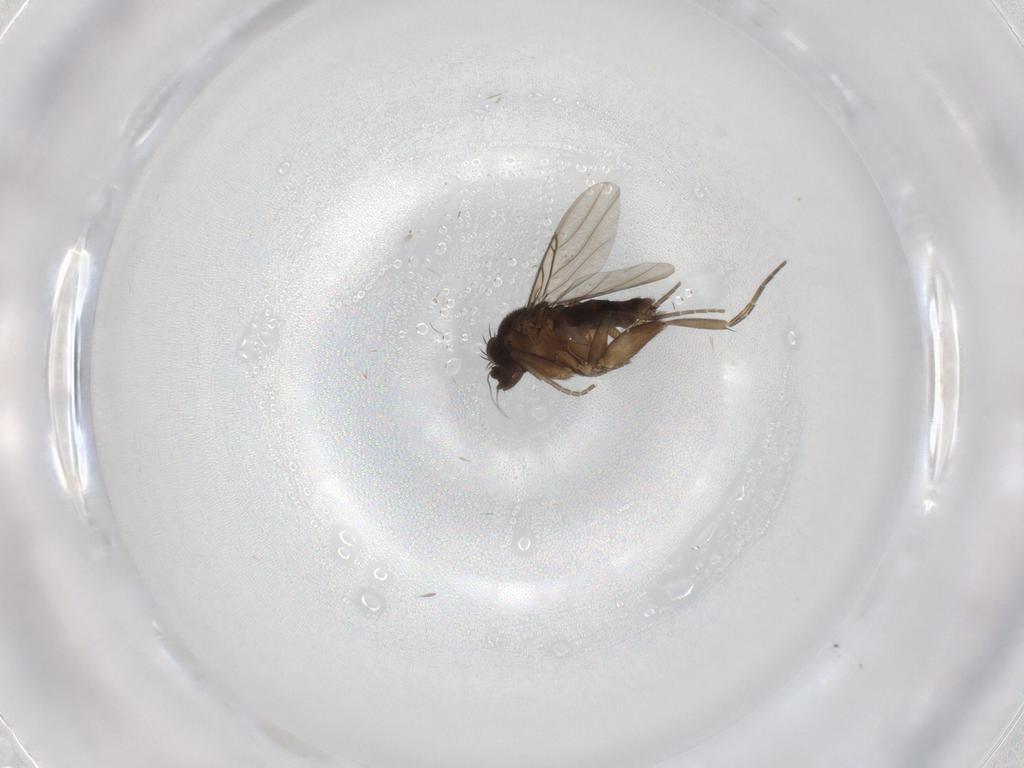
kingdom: Animalia
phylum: Arthropoda
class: Insecta
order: Diptera
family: Phoridae
